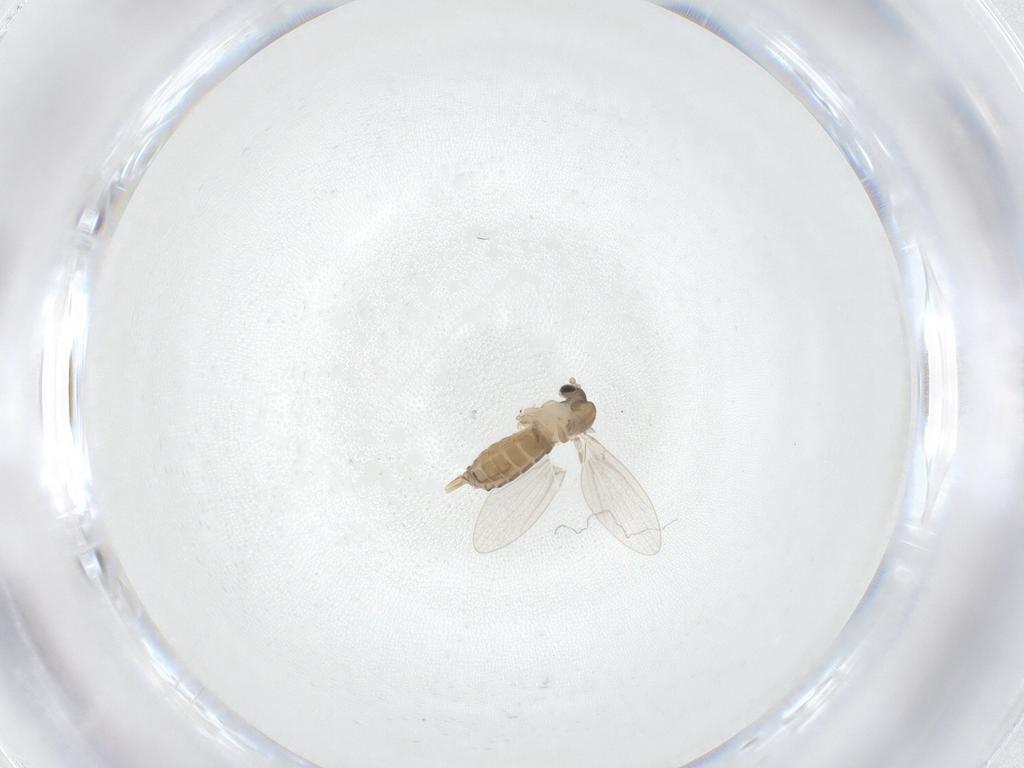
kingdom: Animalia
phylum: Arthropoda
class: Insecta
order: Diptera
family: Psychodidae
